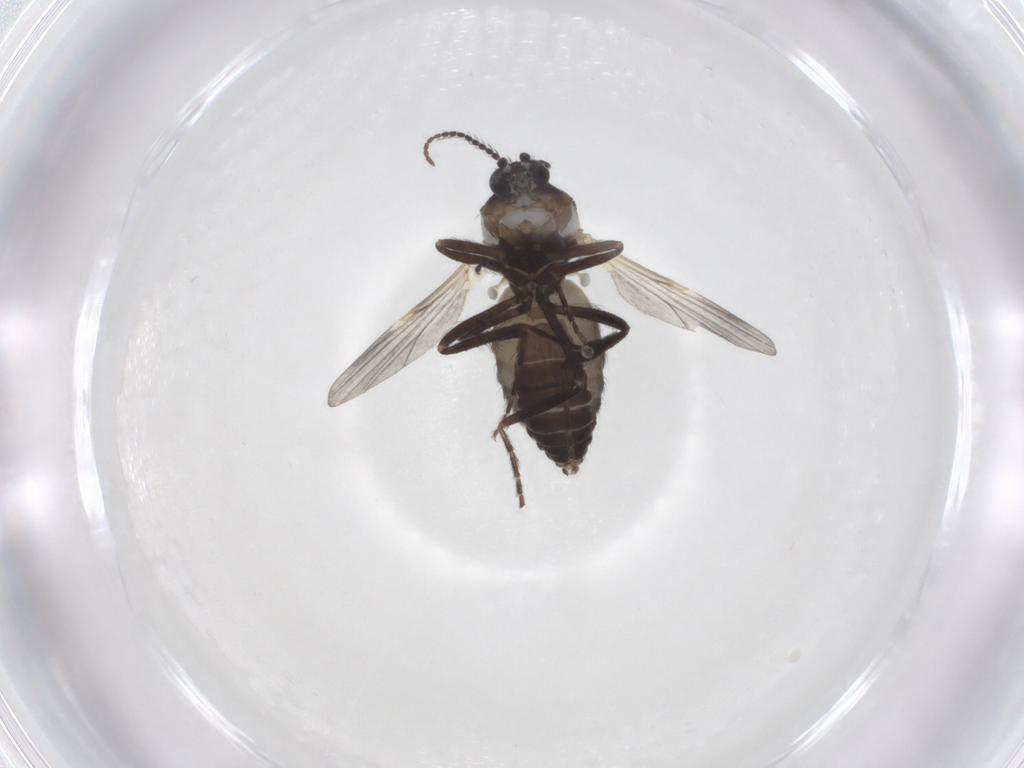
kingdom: Animalia
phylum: Arthropoda
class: Insecta
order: Diptera
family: Ceratopogonidae
